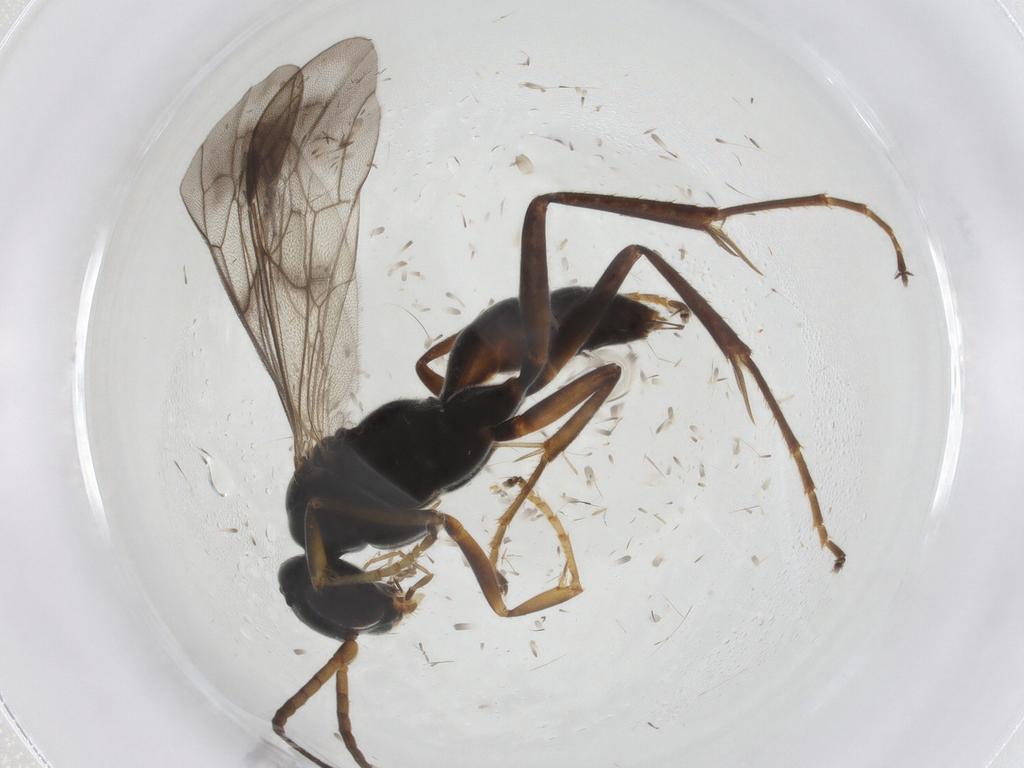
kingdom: Animalia
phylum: Arthropoda
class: Insecta
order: Hymenoptera
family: Pompilidae
